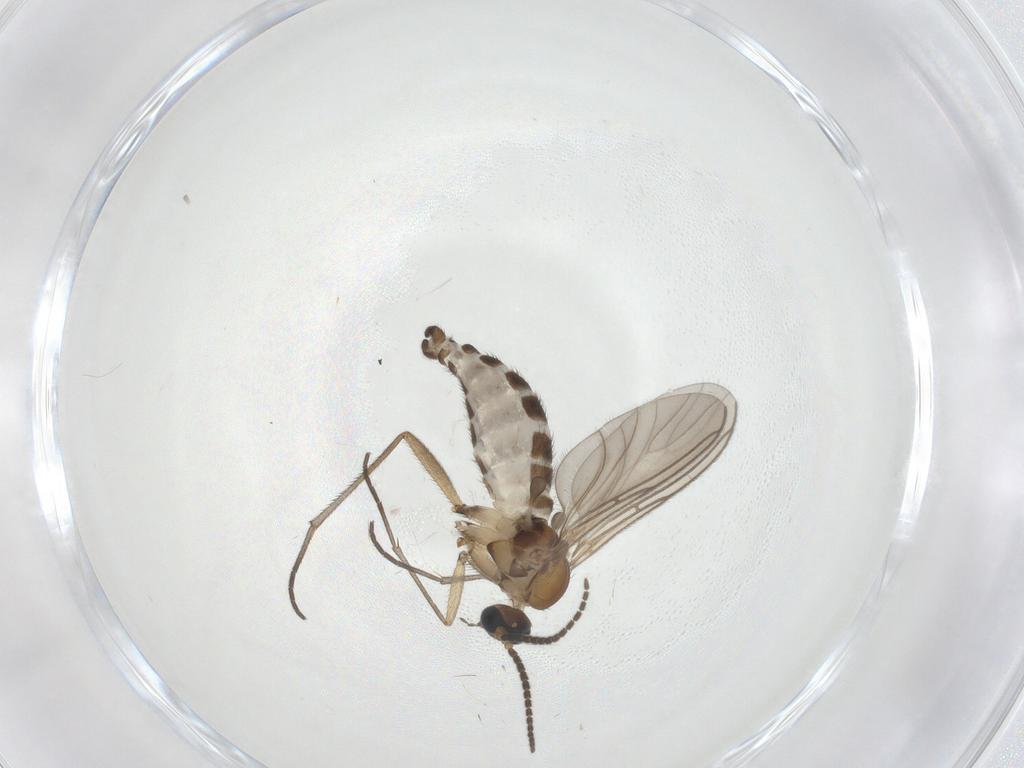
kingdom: Animalia
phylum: Arthropoda
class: Insecta
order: Diptera
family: Sciaridae
